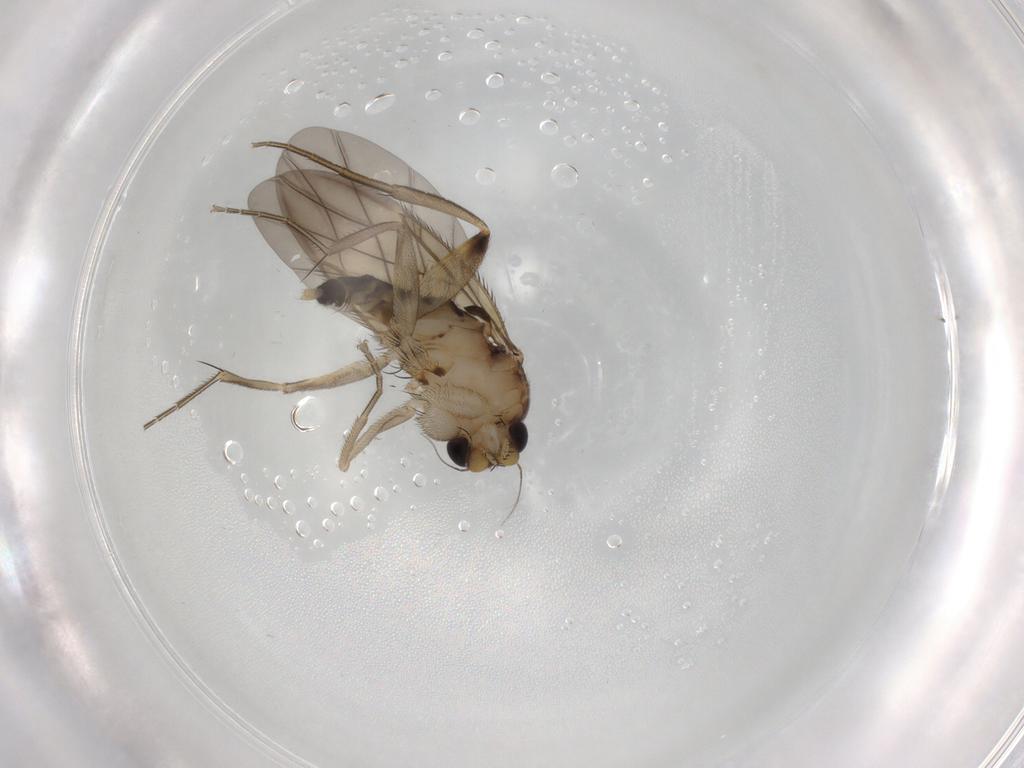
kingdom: Animalia
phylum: Arthropoda
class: Insecta
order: Diptera
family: Phoridae
